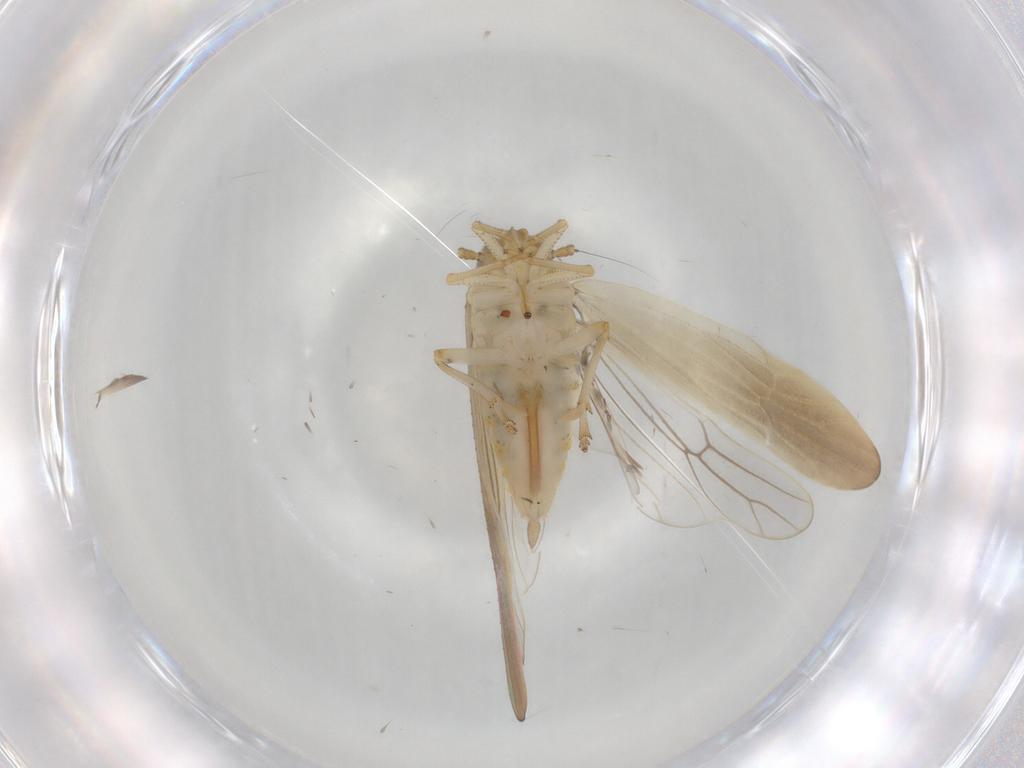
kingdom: Animalia
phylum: Arthropoda
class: Insecta
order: Hemiptera
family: Delphacidae
